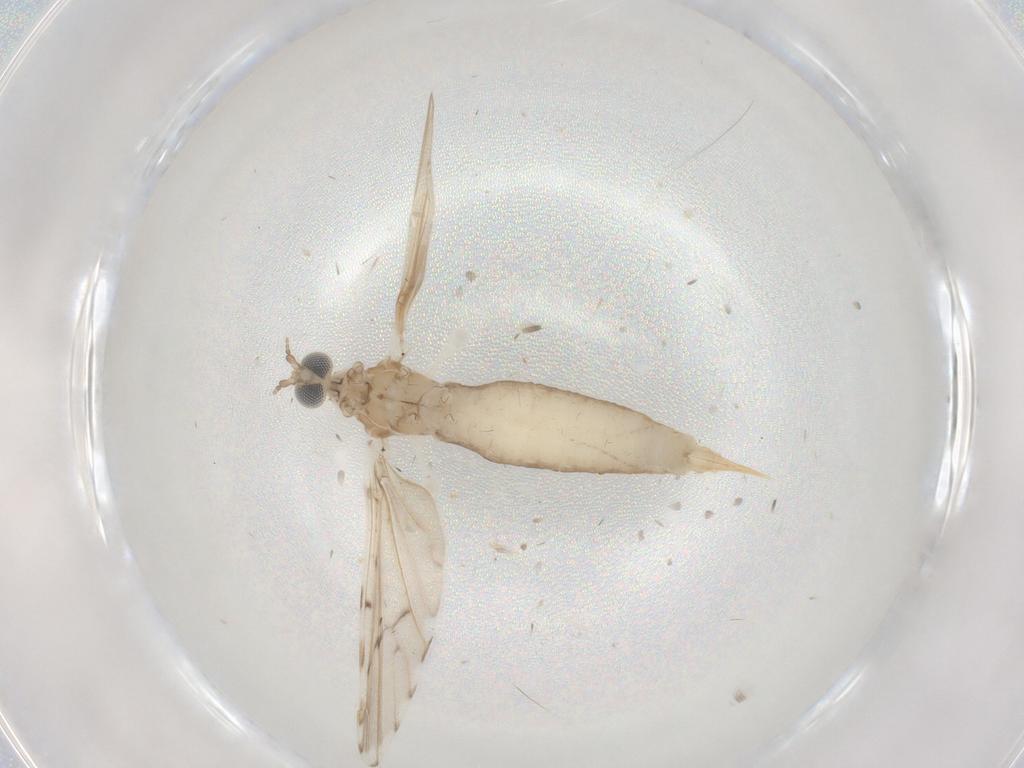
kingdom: Animalia
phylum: Arthropoda
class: Insecta
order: Diptera
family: Limoniidae
